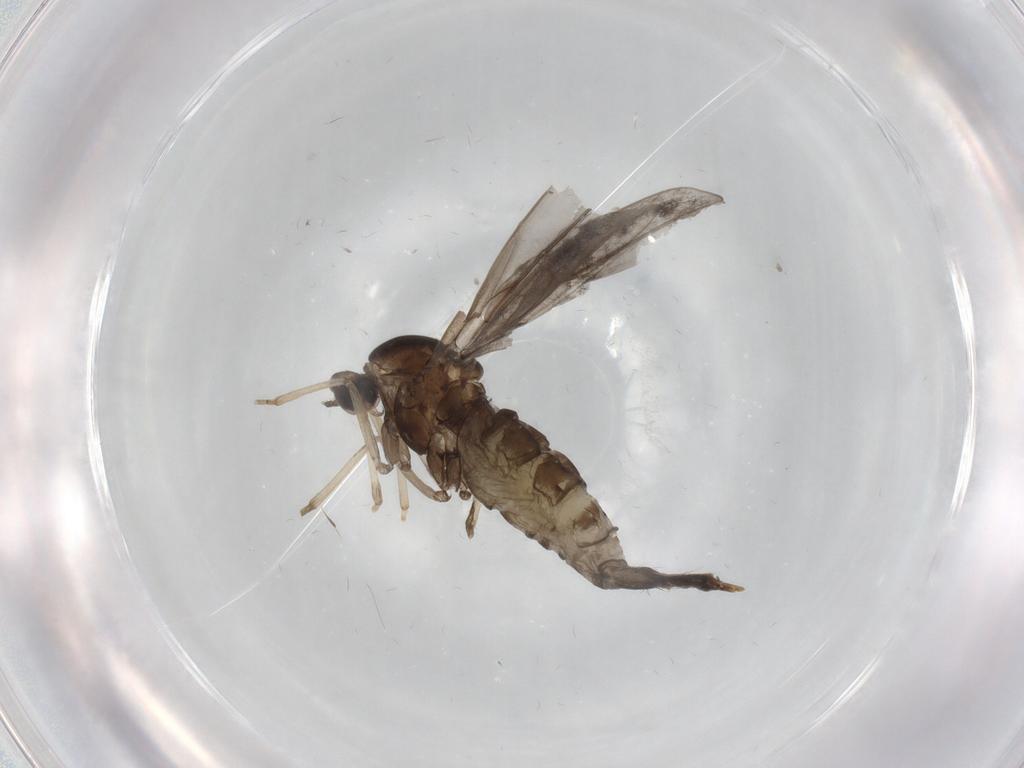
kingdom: Animalia
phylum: Arthropoda
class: Insecta
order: Diptera
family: Cecidomyiidae
